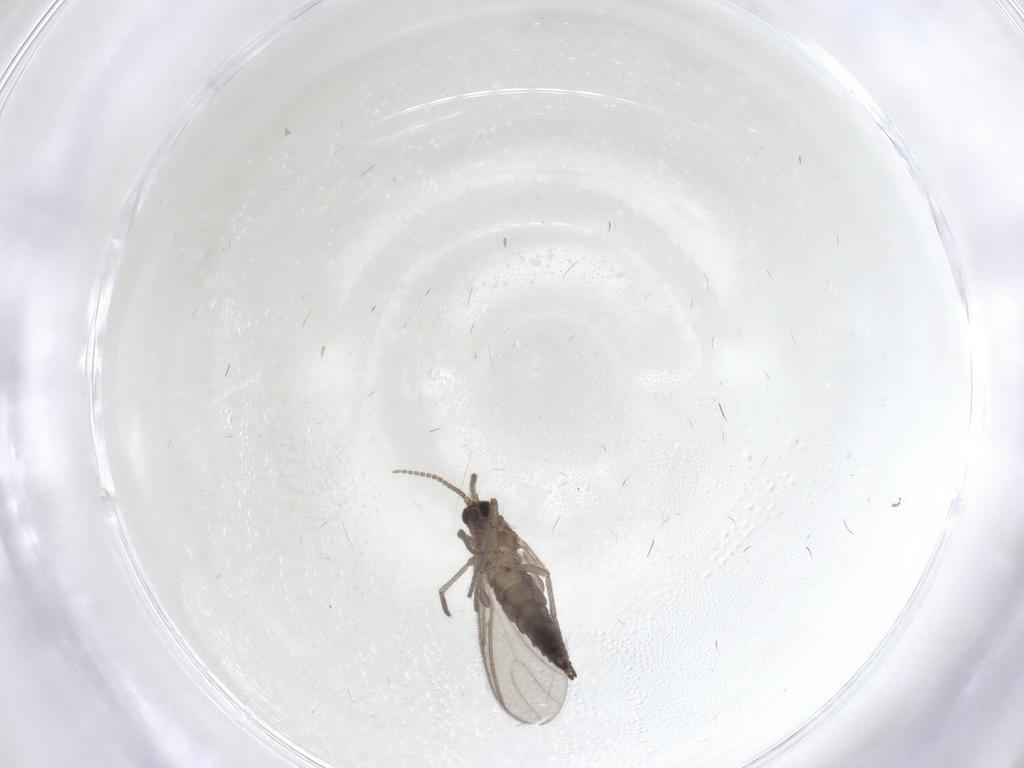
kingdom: Animalia
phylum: Arthropoda
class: Insecta
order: Diptera
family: Sciaridae
